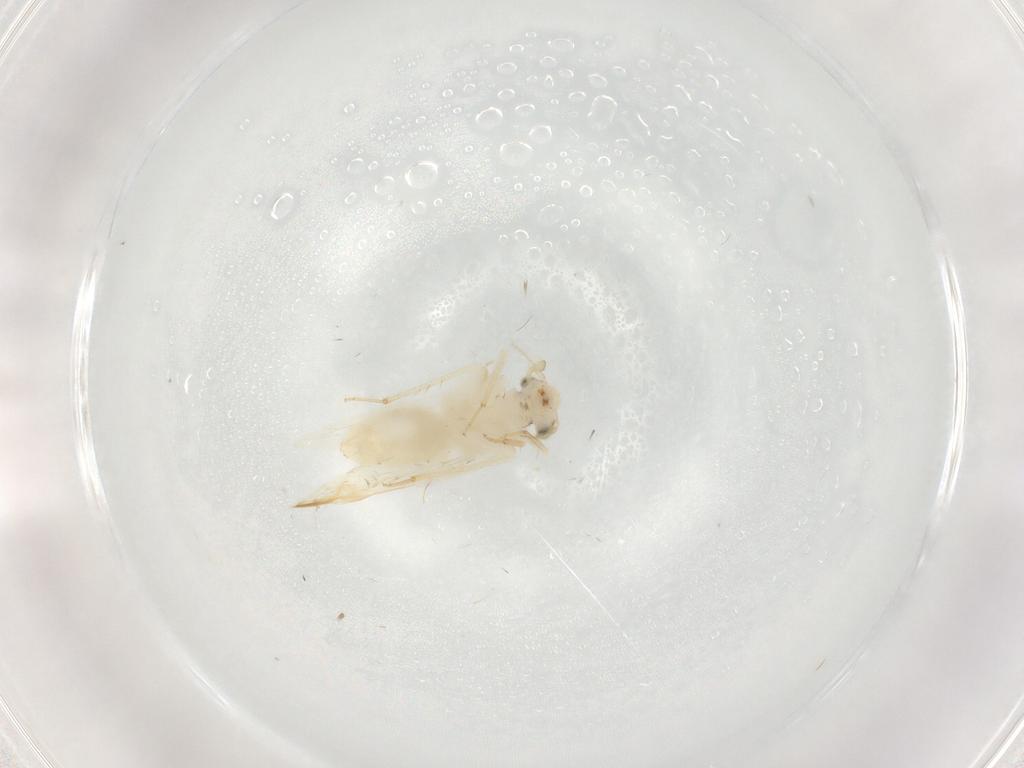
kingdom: Animalia
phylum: Arthropoda
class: Insecta
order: Psocodea
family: Lepidopsocidae
